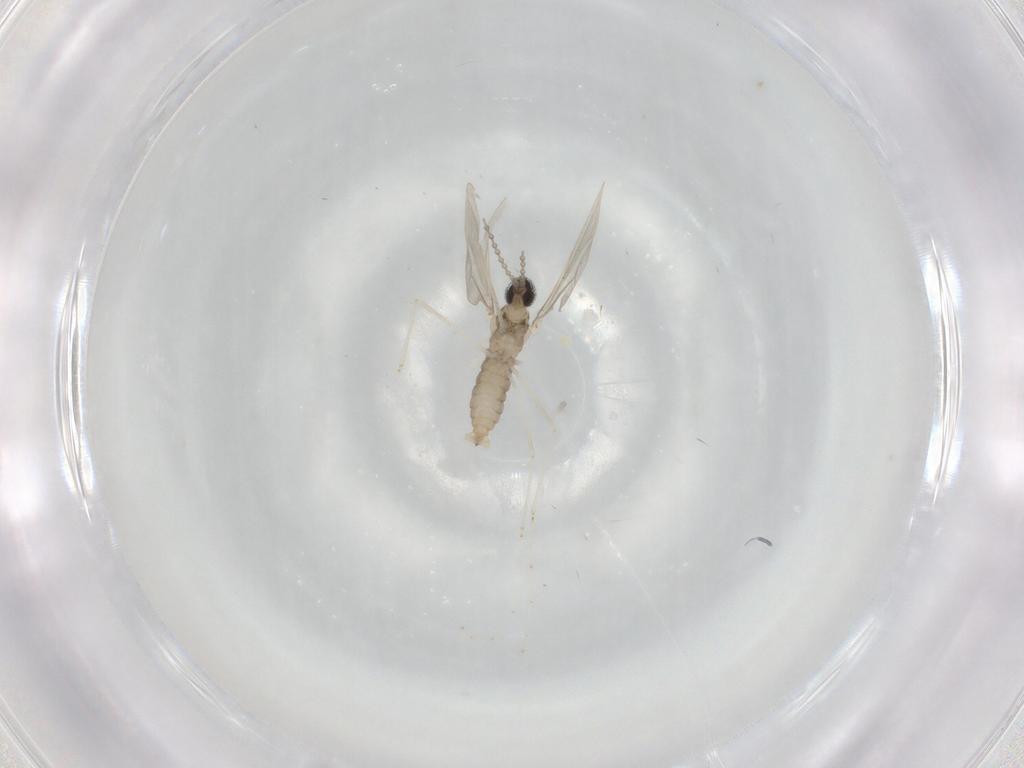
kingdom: Animalia
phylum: Arthropoda
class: Insecta
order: Diptera
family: Cecidomyiidae
